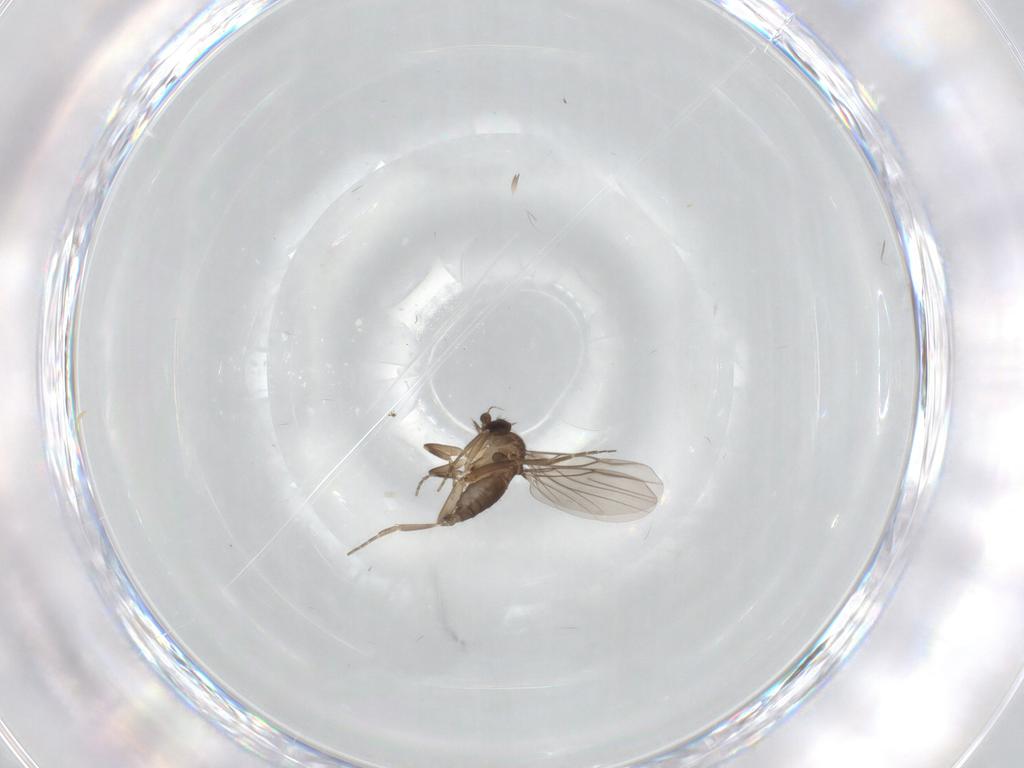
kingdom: Animalia
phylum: Arthropoda
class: Insecta
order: Diptera
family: Phoridae
